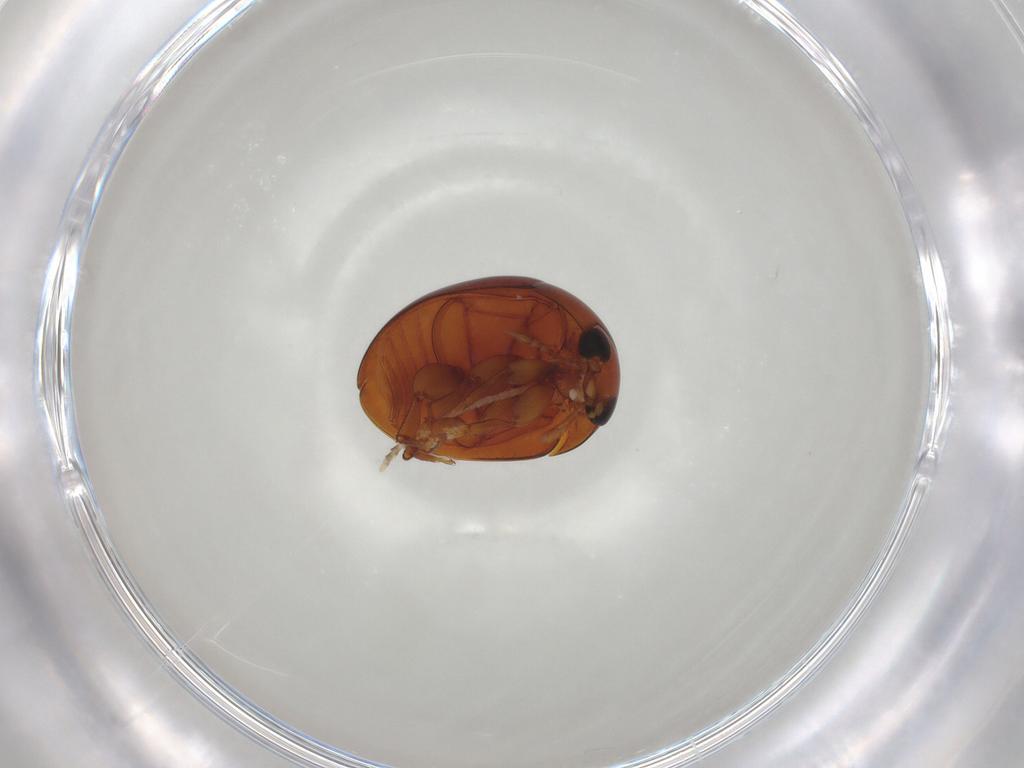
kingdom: Animalia
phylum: Arthropoda
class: Insecta
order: Coleoptera
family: Phalacridae
